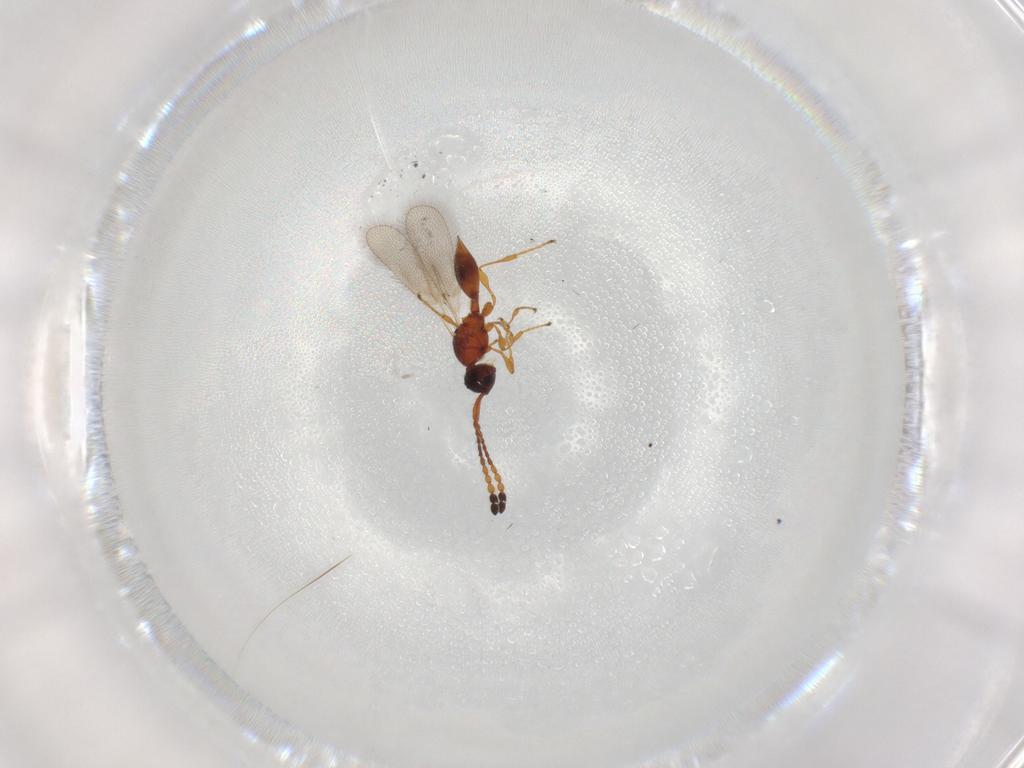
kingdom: Animalia
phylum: Arthropoda
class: Insecta
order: Hymenoptera
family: Diapriidae
